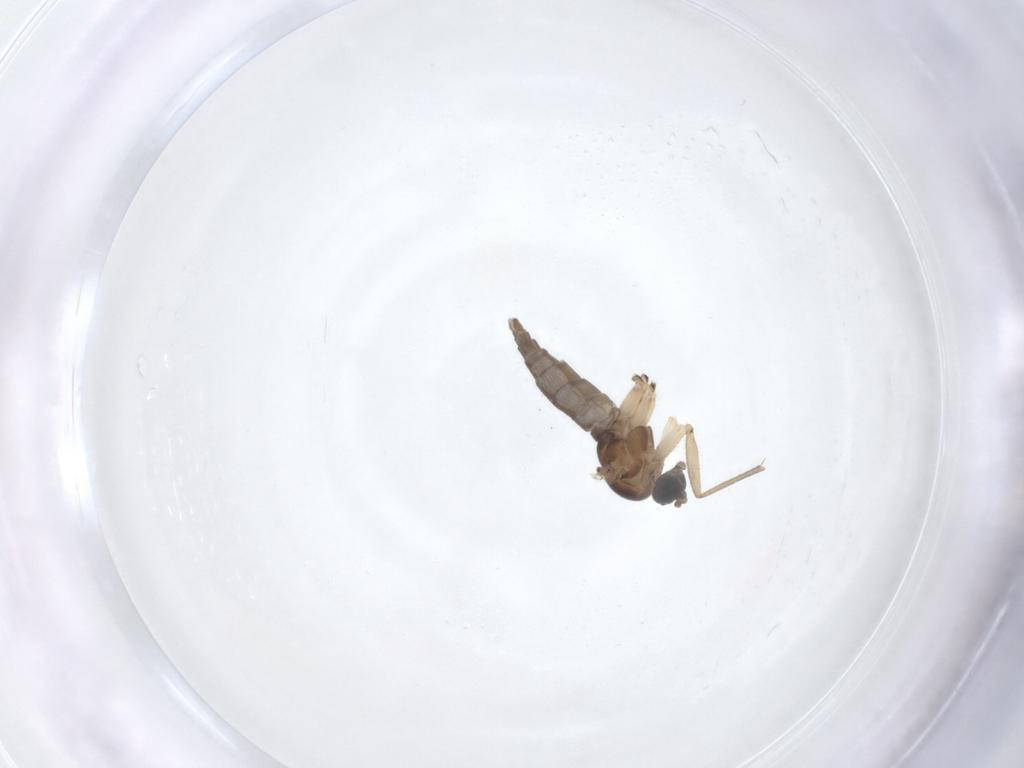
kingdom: Animalia
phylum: Arthropoda
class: Insecta
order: Diptera
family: Sciaridae
